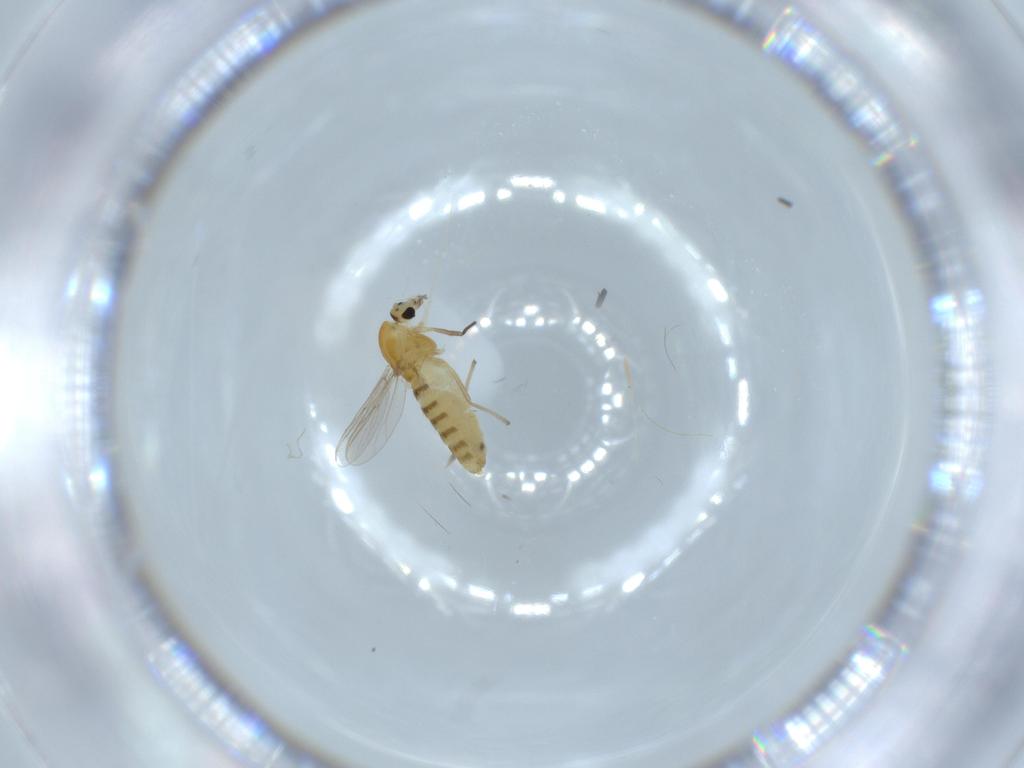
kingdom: Animalia
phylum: Arthropoda
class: Insecta
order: Diptera
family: Chironomidae
